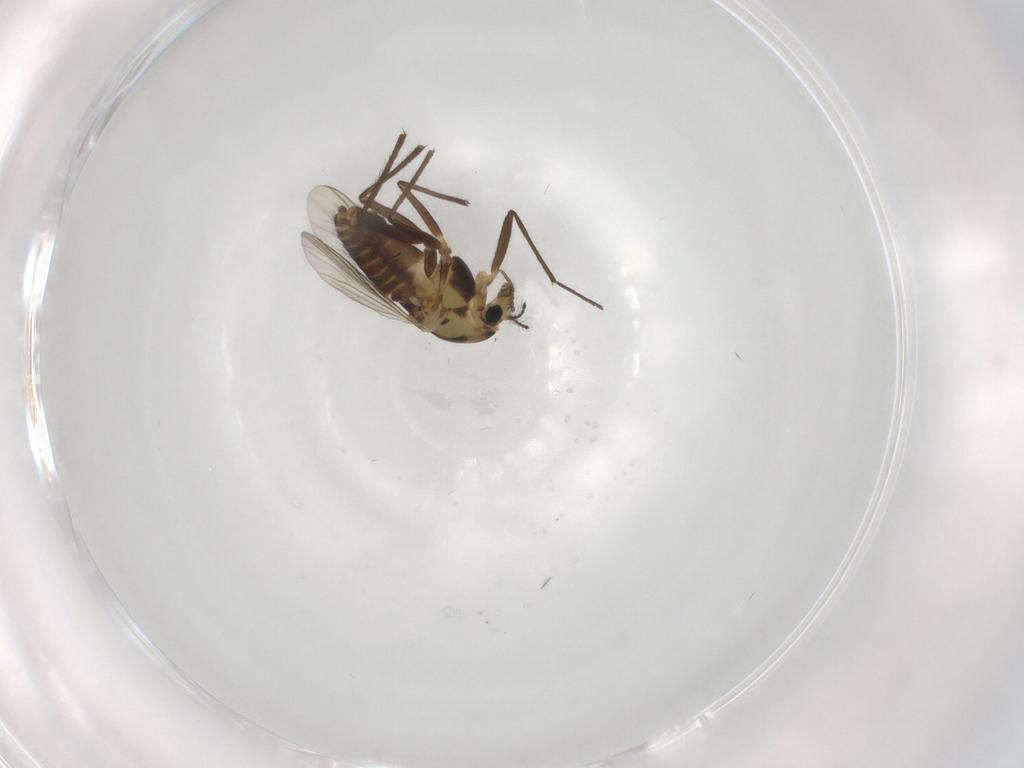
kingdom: Animalia
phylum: Arthropoda
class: Insecta
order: Diptera
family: Chironomidae
